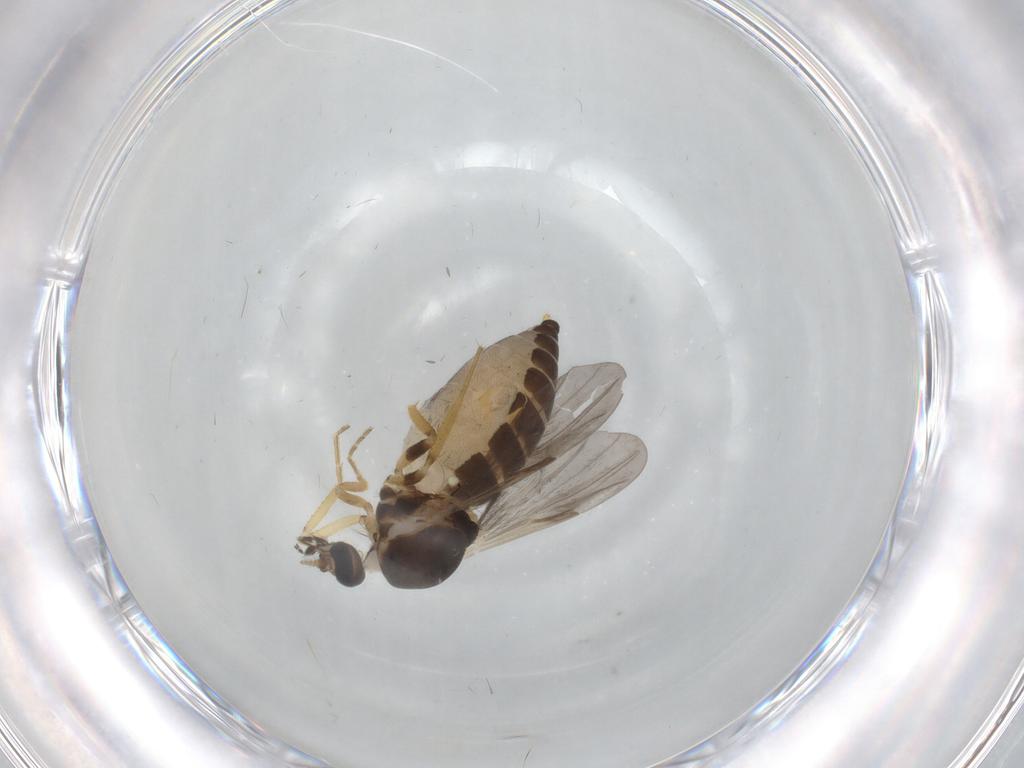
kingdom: Animalia
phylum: Arthropoda
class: Insecta
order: Diptera
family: Ceratopogonidae
